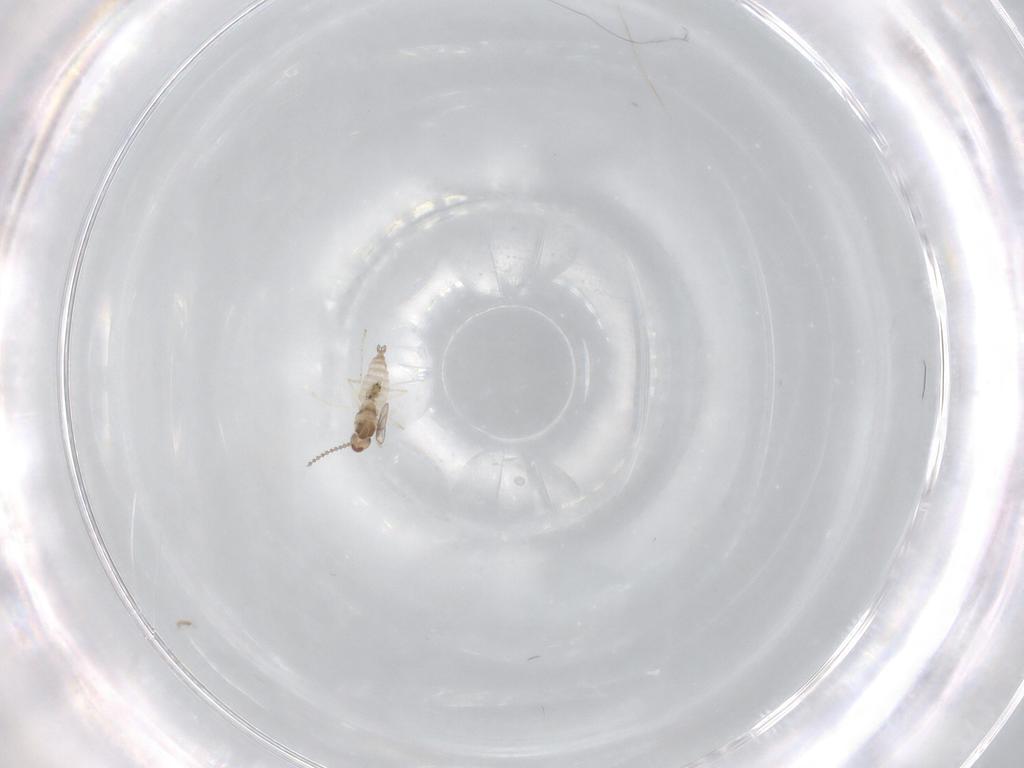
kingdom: Animalia
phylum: Arthropoda
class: Insecta
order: Diptera
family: Cecidomyiidae
